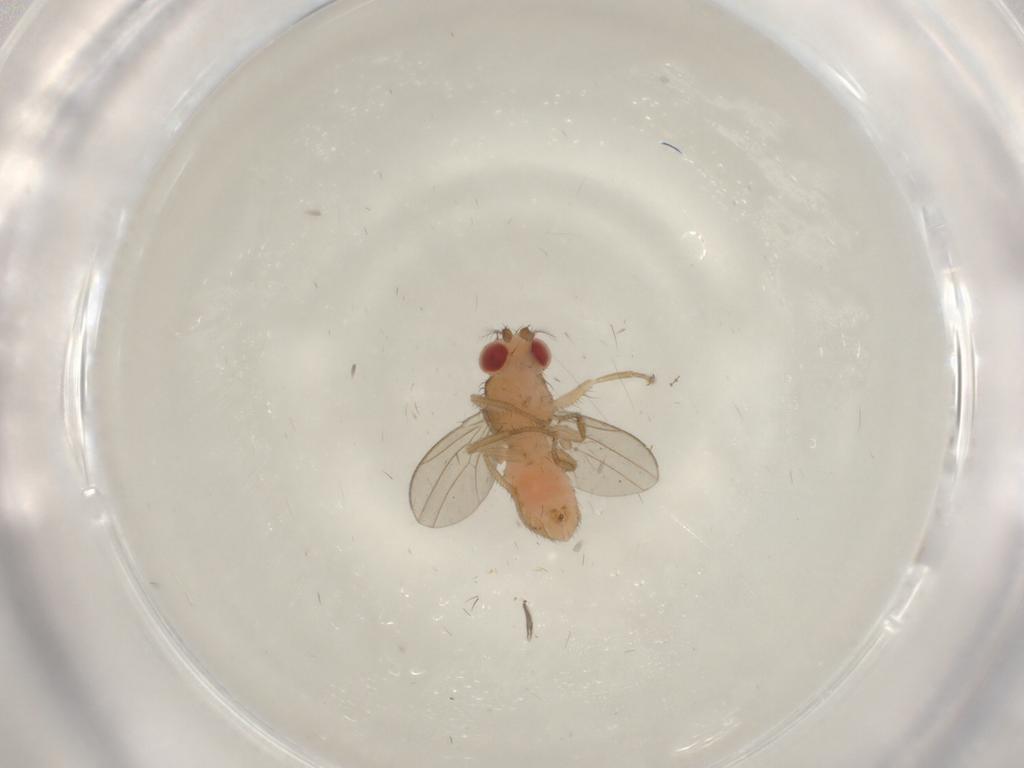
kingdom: Animalia
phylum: Arthropoda
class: Insecta
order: Diptera
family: Drosophilidae
